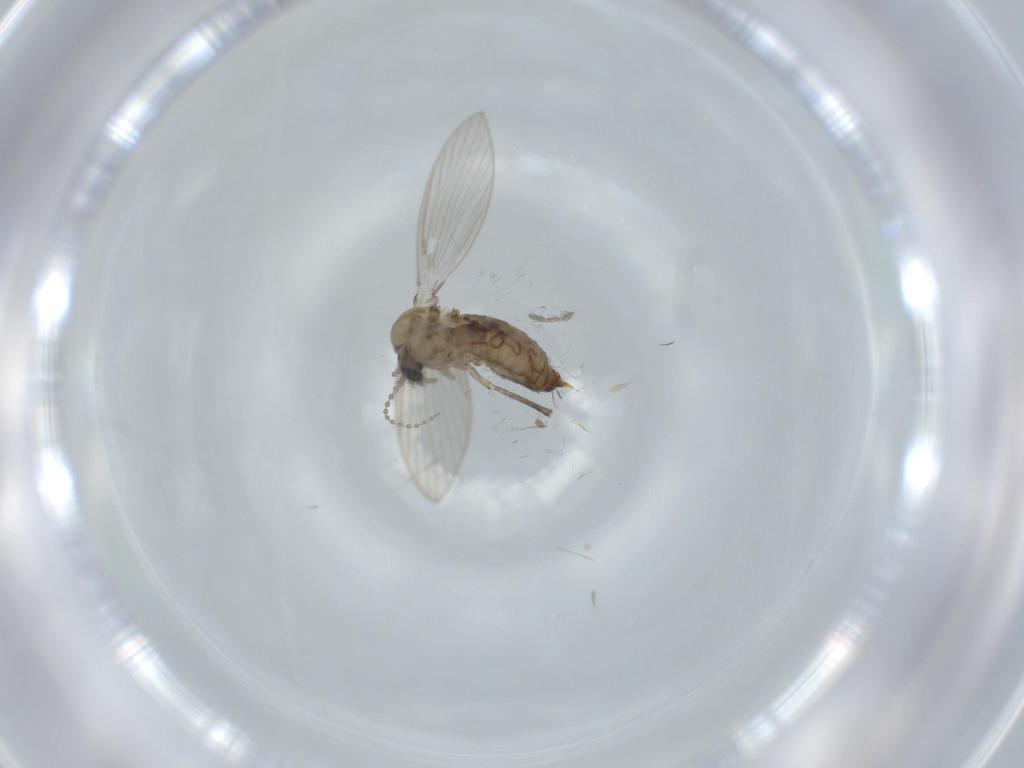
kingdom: Animalia
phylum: Arthropoda
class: Insecta
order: Diptera
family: Psychodidae
